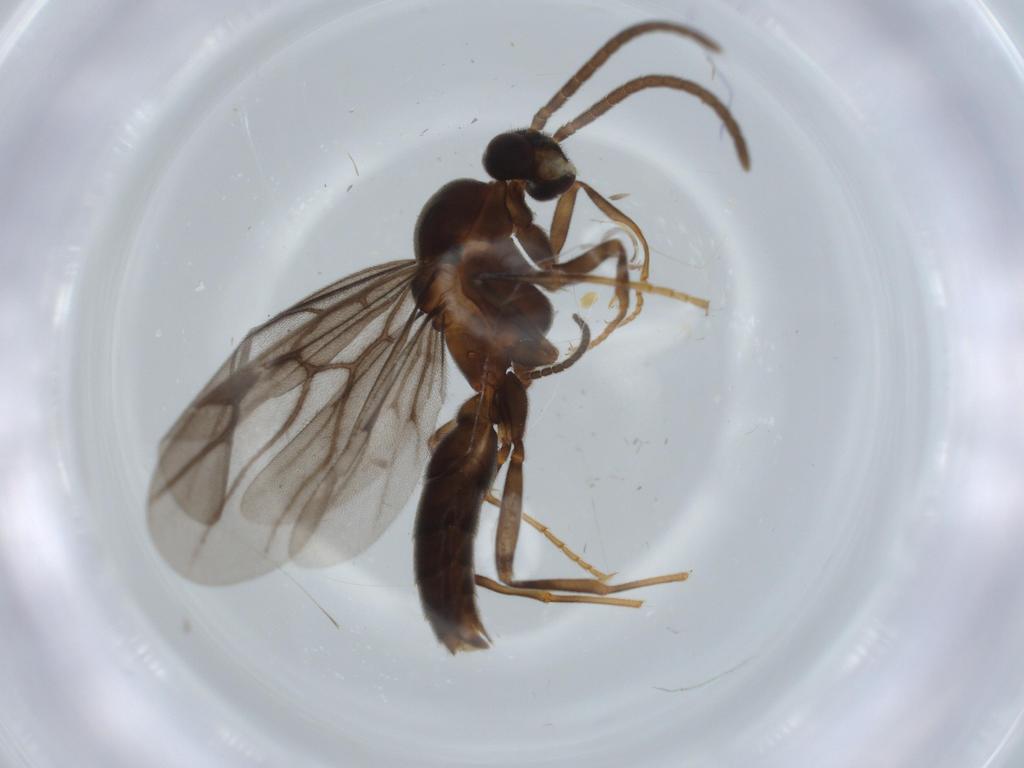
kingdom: Animalia
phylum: Arthropoda
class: Insecta
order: Hymenoptera
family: Formicidae
